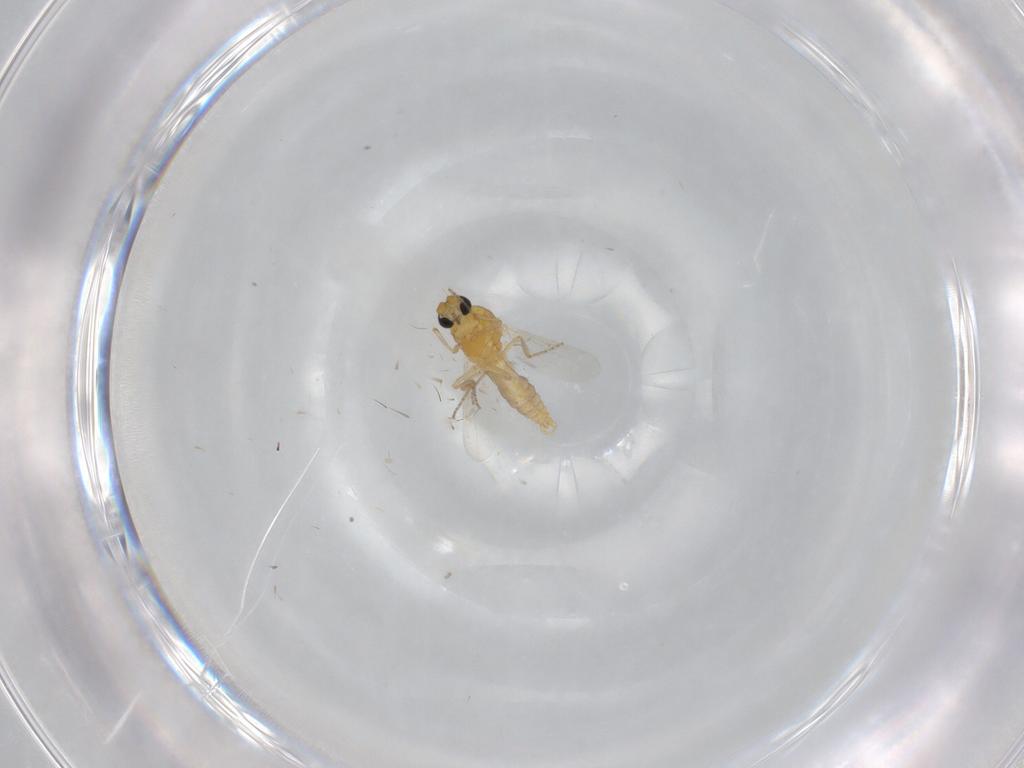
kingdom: Animalia
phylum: Arthropoda
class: Insecta
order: Diptera
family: Ceratopogonidae
